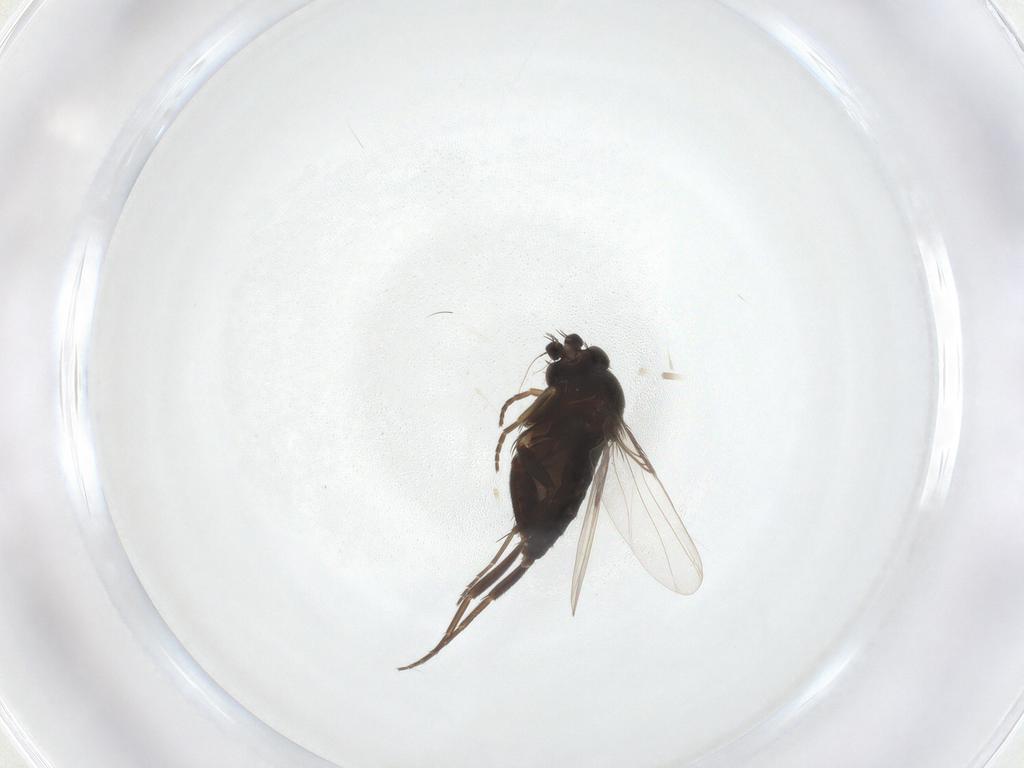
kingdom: Animalia
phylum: Arthropoda
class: Insecta
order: Diptera
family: Phoridae
